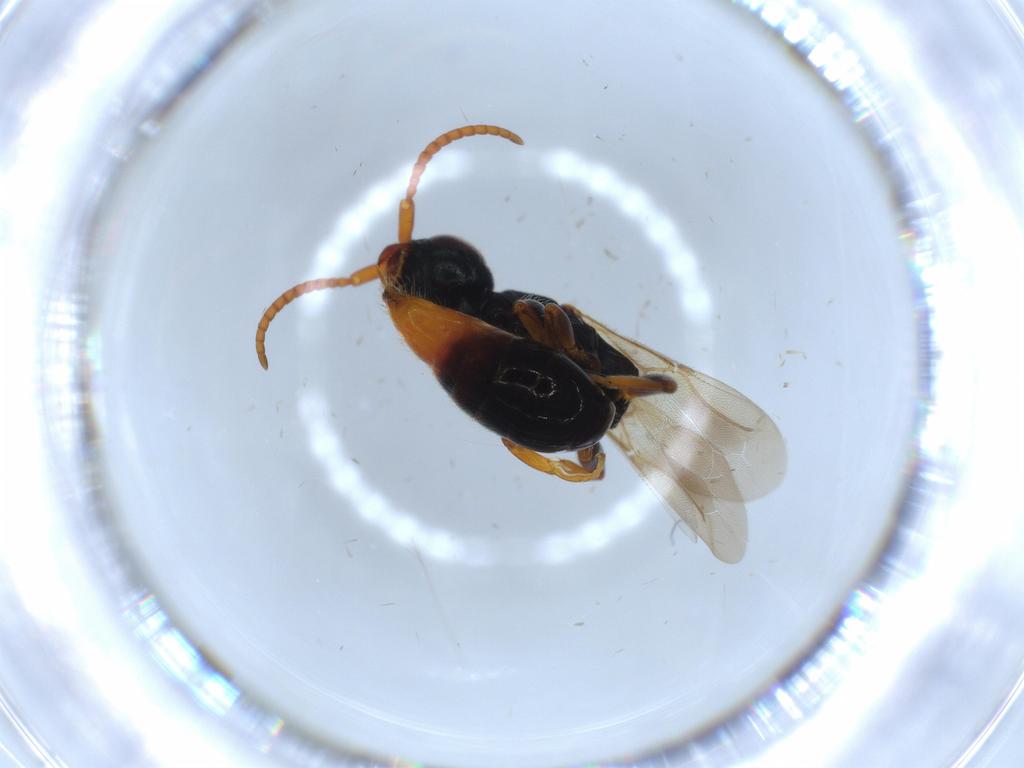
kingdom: Animalia
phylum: Arthropoda
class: Insecta
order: Hymenoptera
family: Bethylidae
